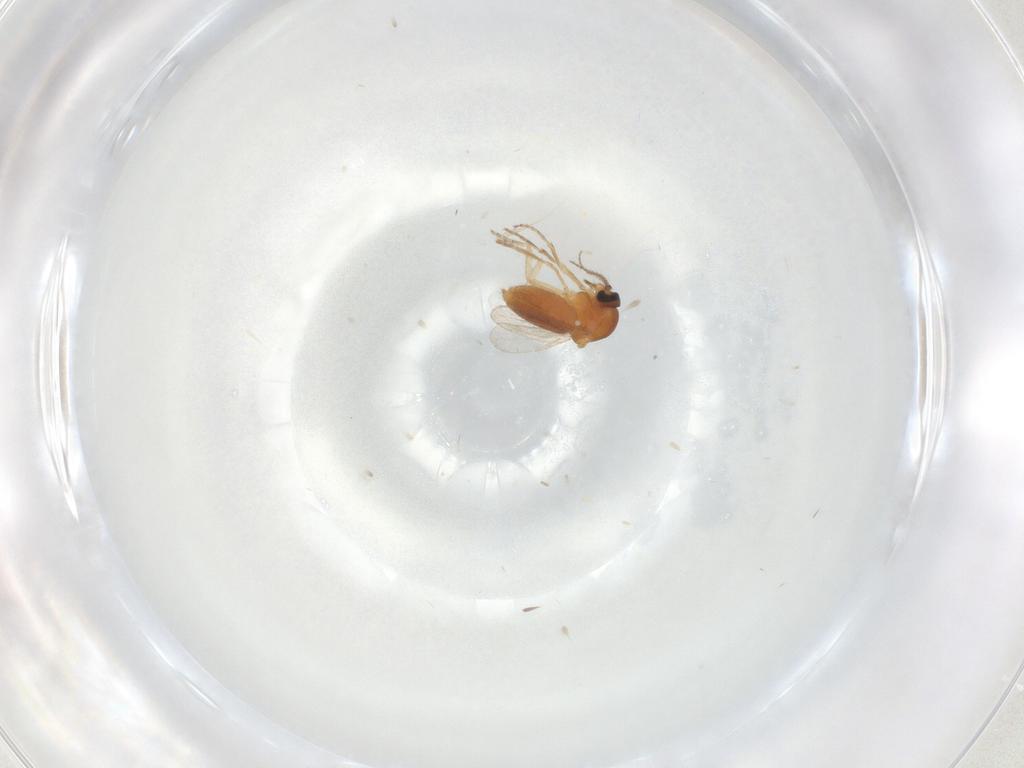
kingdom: Animalia
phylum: Arthropoda
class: Insecta
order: Diptera
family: Ceratopogonidae
